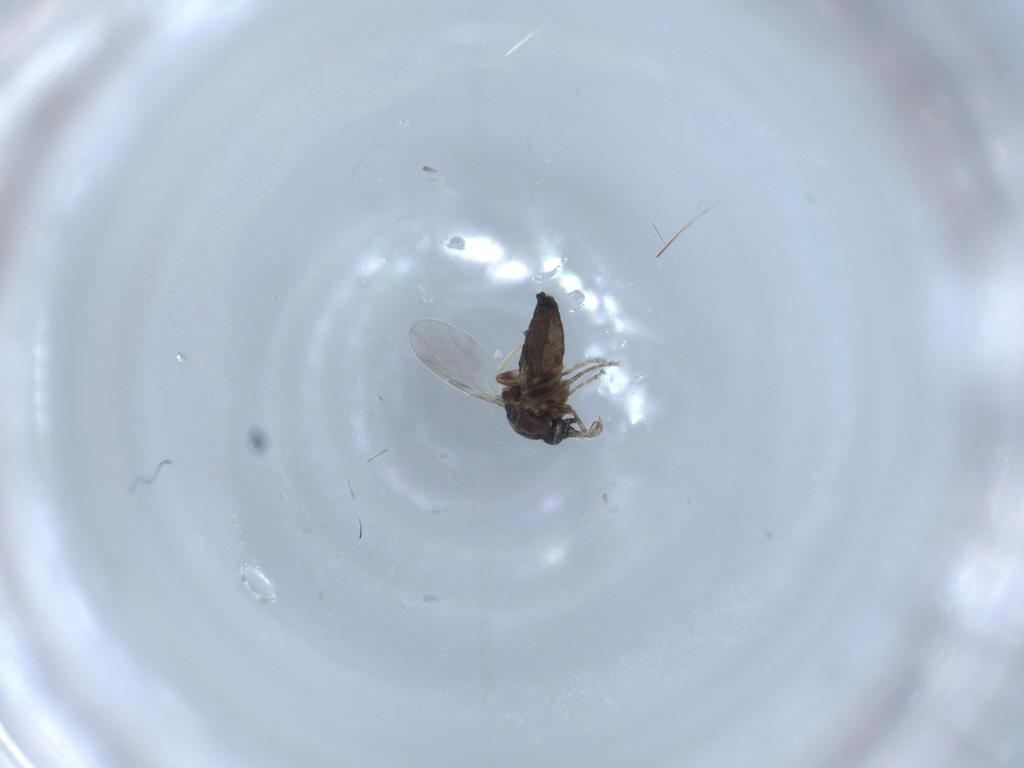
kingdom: Animalia
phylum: Arthropoda
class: Insecta
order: Diptera
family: Ceratopogonidae
